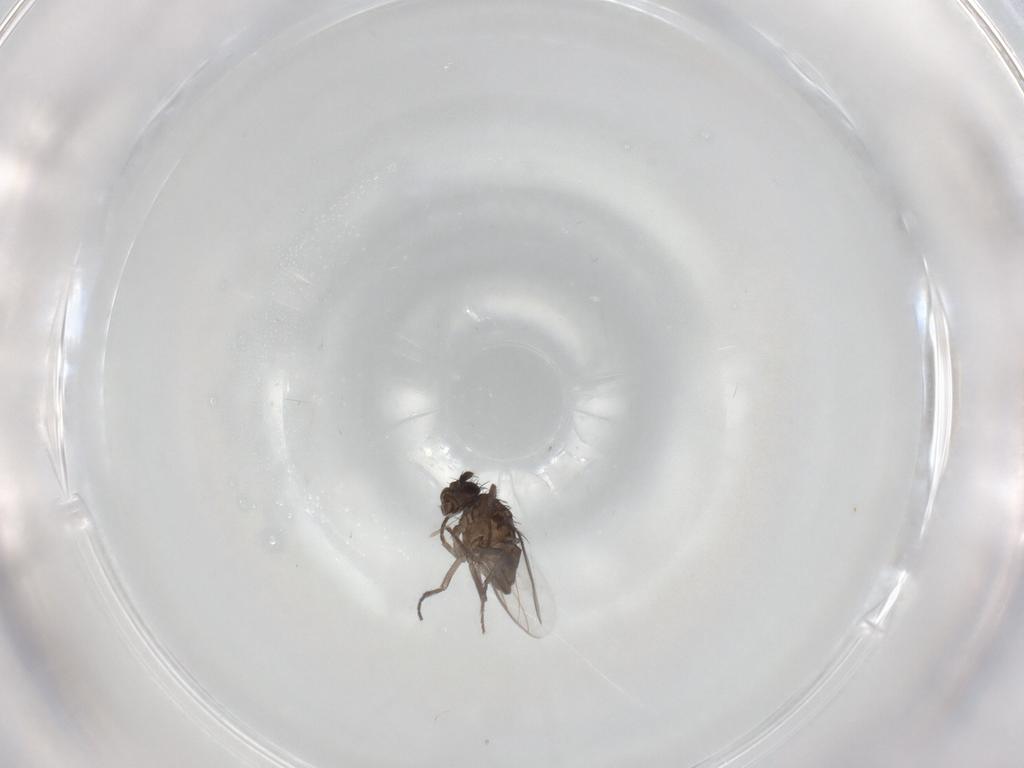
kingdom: Animalia
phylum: Arthropoda
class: Insecta
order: Diptera
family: Sphaeroceridae
